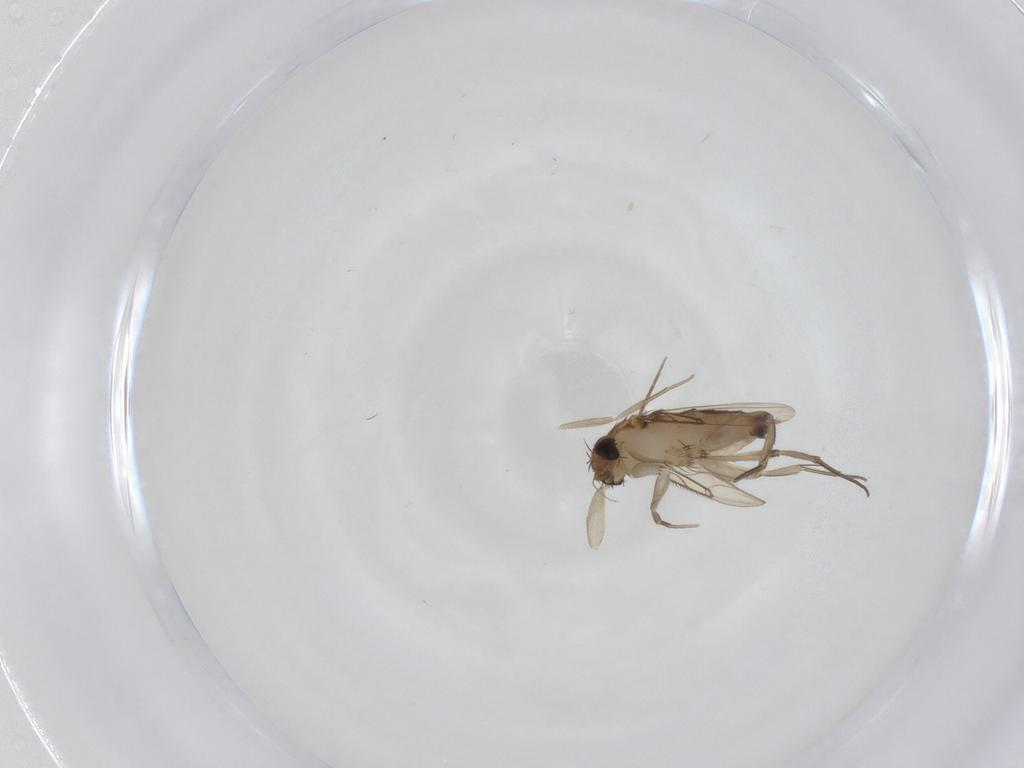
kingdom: Animalia
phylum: Arthropoda
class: Insecta
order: Diptera
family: Phoridae
